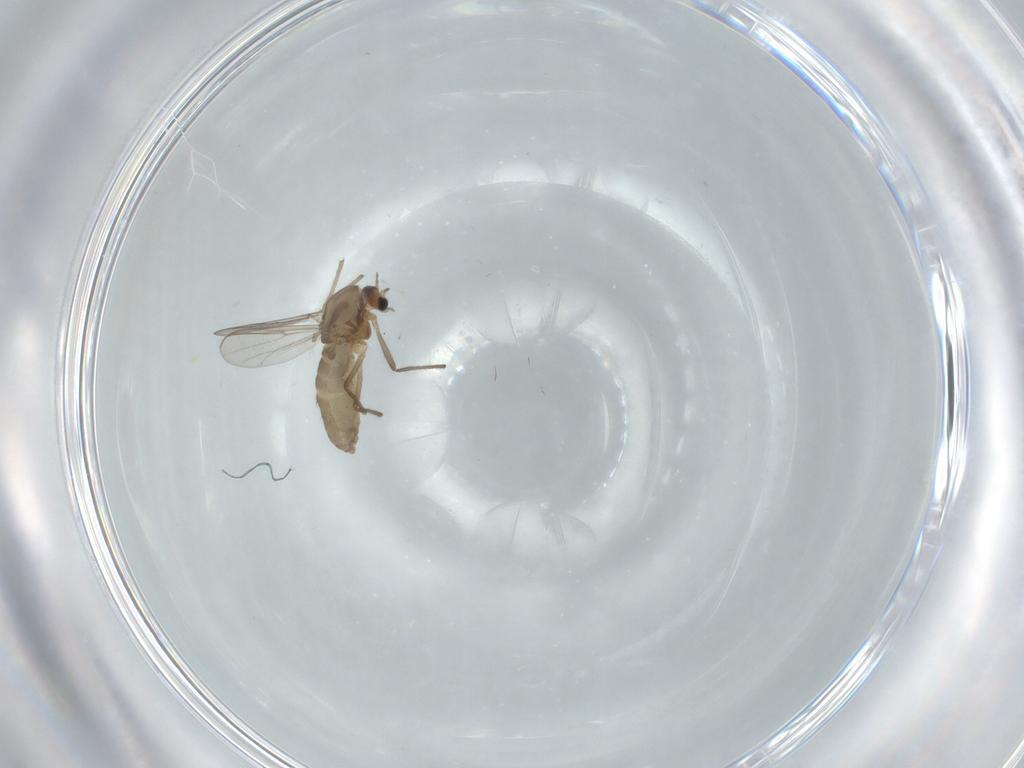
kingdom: Animalia
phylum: Arthropoda
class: Insecta
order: Diptera
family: Chironomidae
